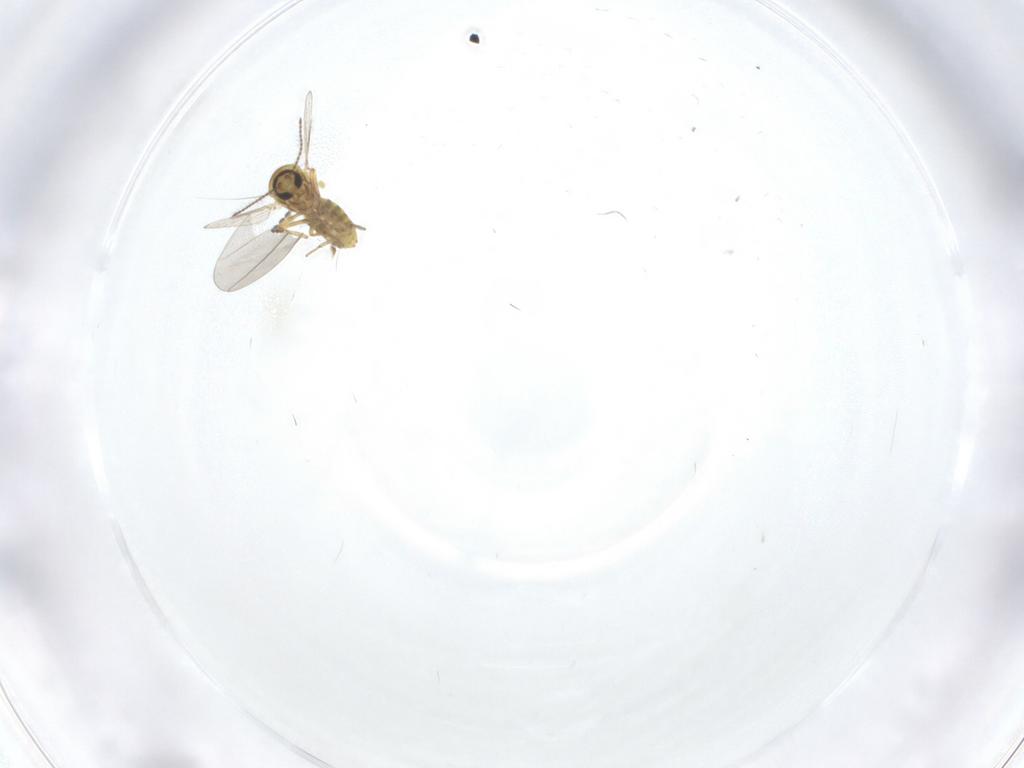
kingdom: Animalia
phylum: Arthropoda
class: Insecta
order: Diptera
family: Ceratopogonidae
